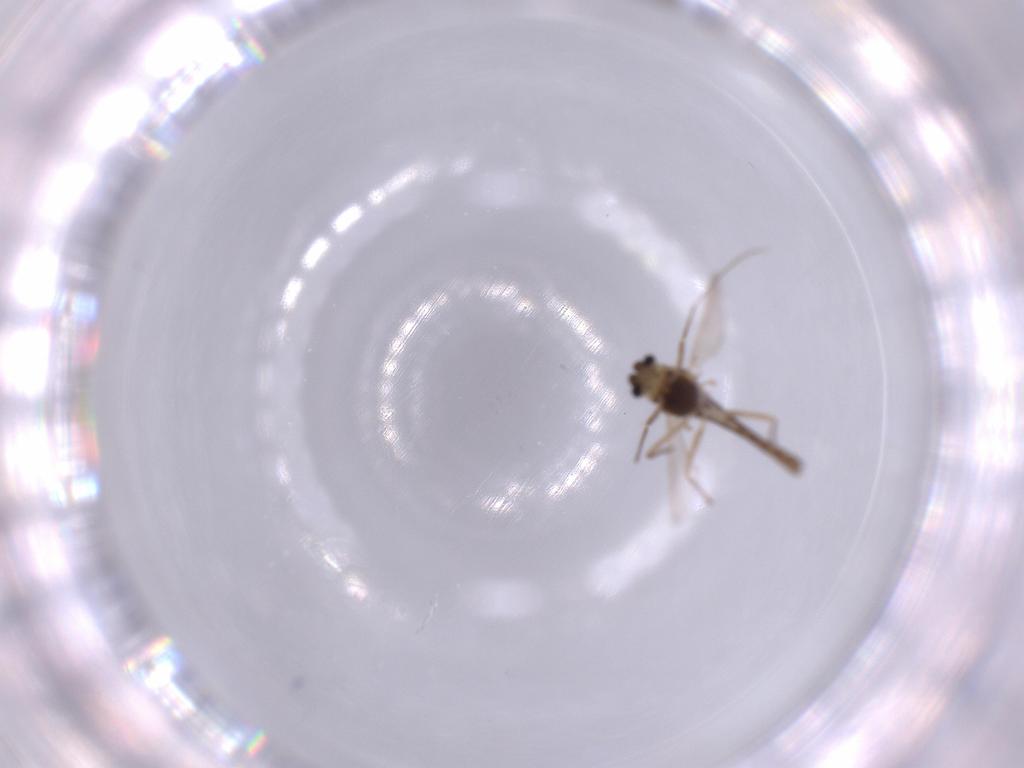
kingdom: Animalia
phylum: Arthropoda
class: Insecta
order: Diptera
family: Chironomidae
